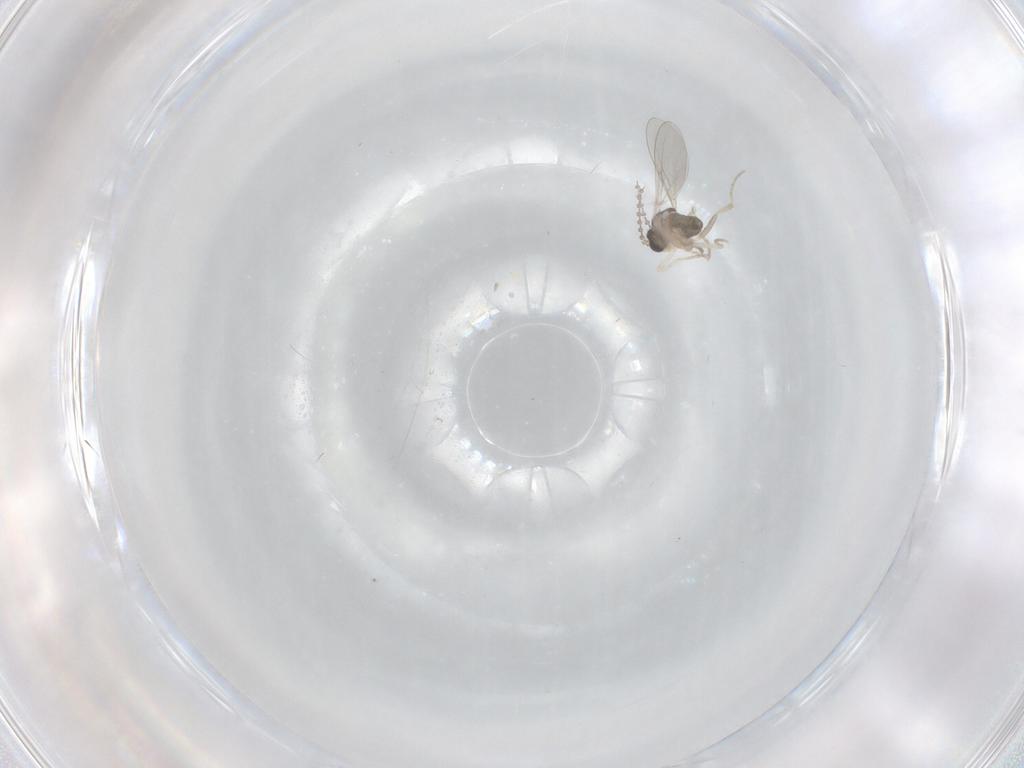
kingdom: Animalia
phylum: Arthropoda
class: Insecta
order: Diptera
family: Cecidomyiidae
